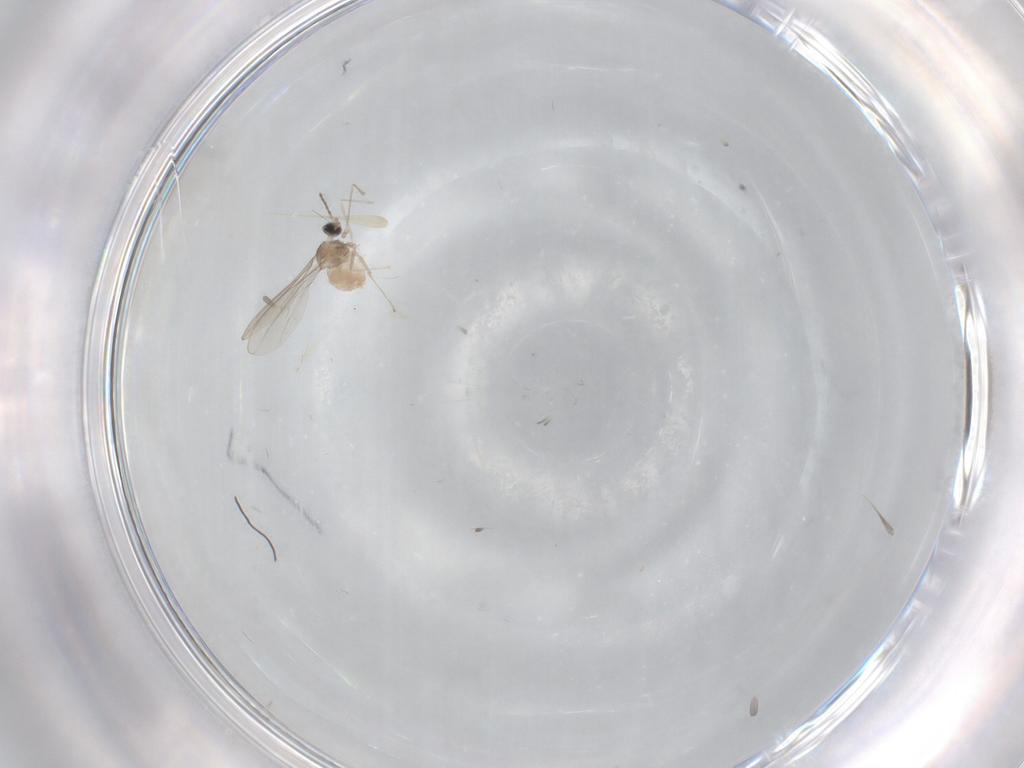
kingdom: Animalia
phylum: Arthropoda
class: Insecta
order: Diptera
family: Cecidomyiidae
